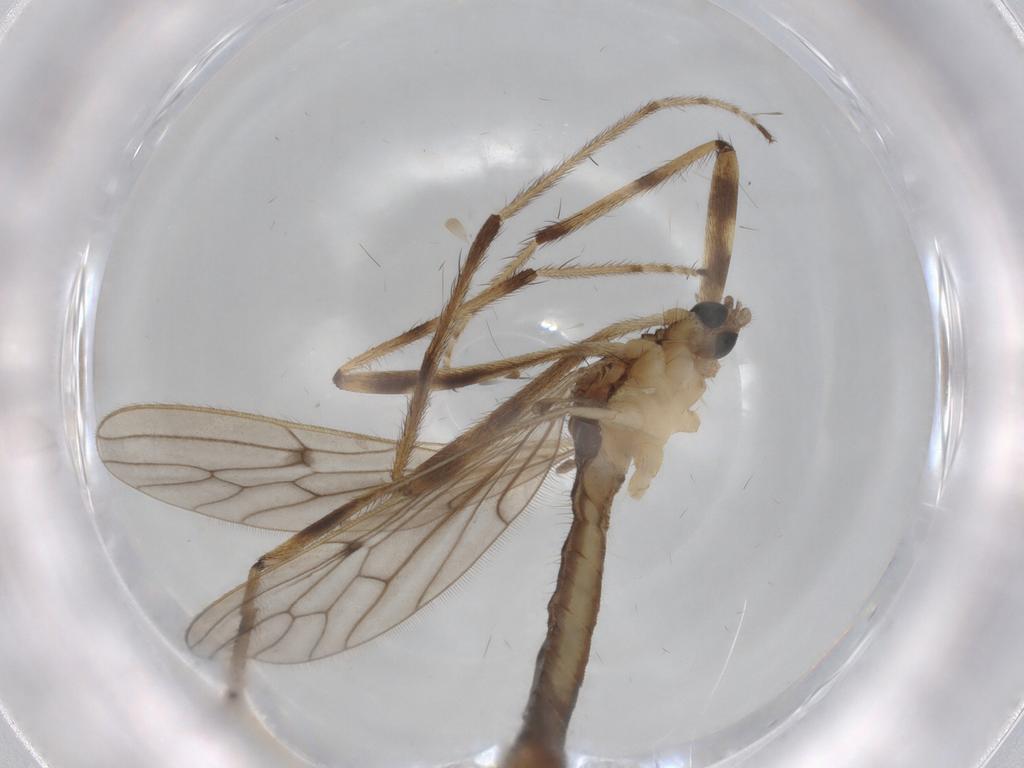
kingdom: Animalia
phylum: Arthropoda
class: Insecta
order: Diptera
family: Limoniidae
